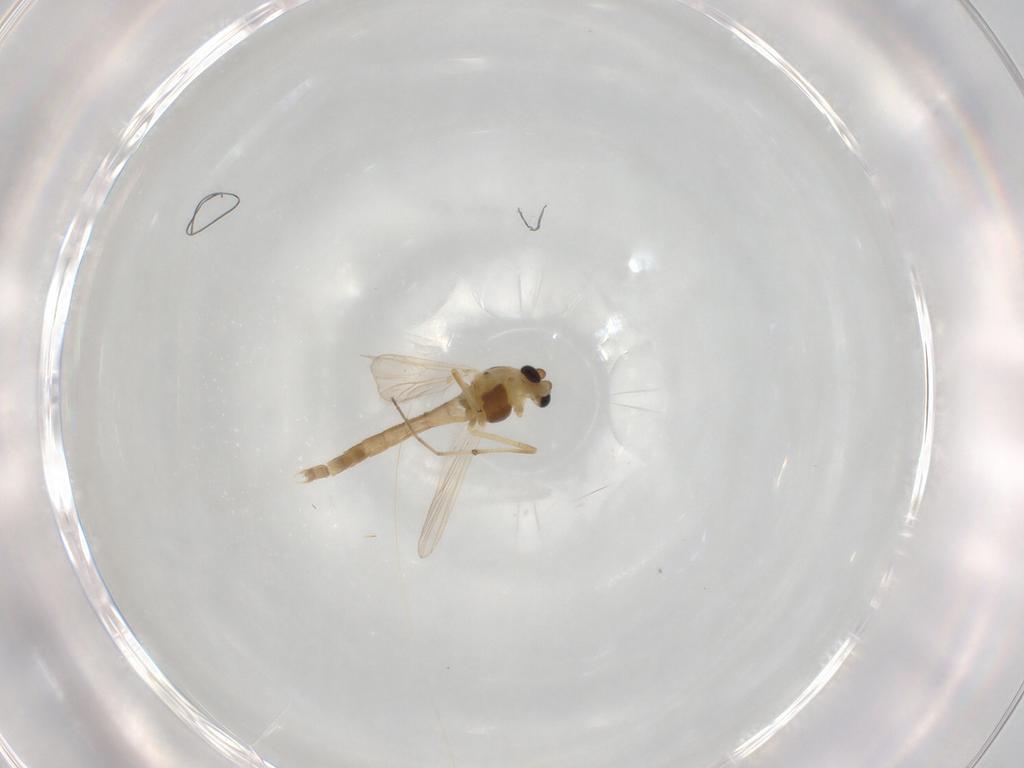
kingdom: Animalia
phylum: Arthropoda
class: Insecta
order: Diptera
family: Chironomidae
